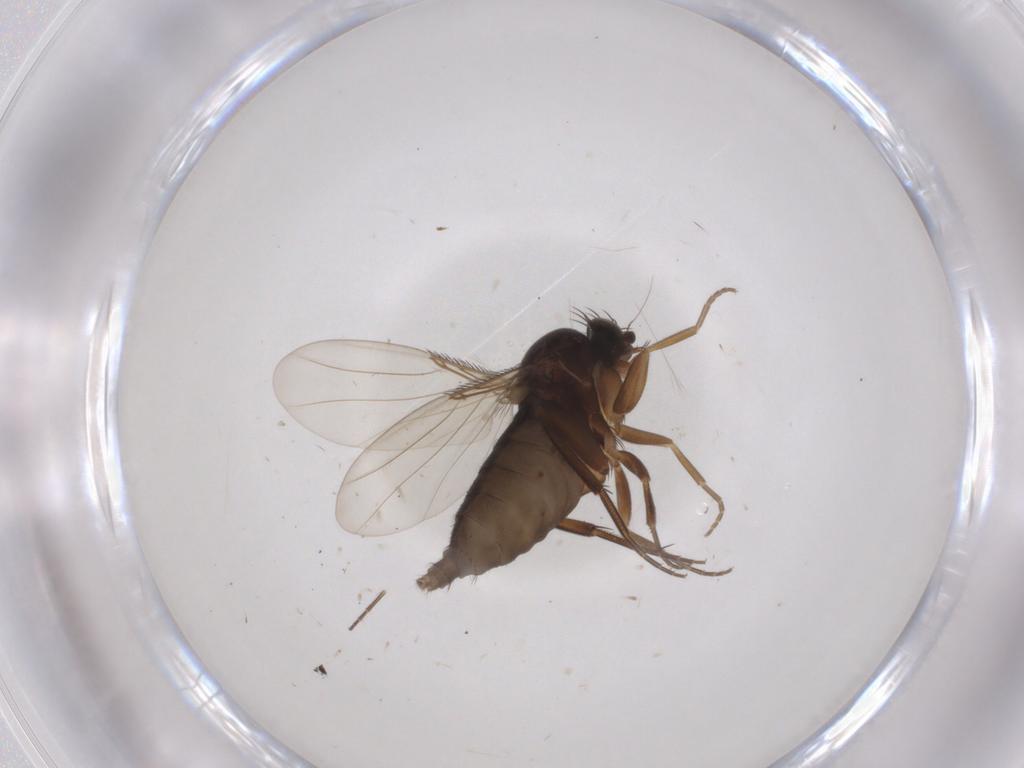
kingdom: Animalia
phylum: Arthropoda
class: Insecta
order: Diptera
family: Phoridae
